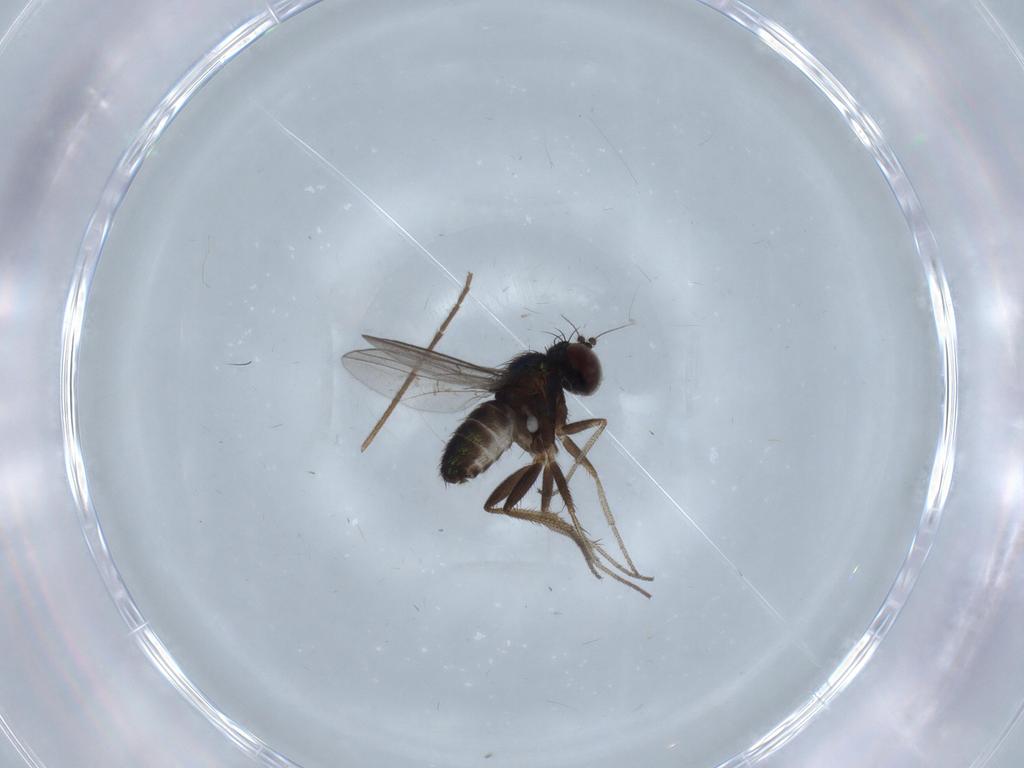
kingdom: Animalia
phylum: Arthropoda
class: Insecta
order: Diptera
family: Chironomidae
